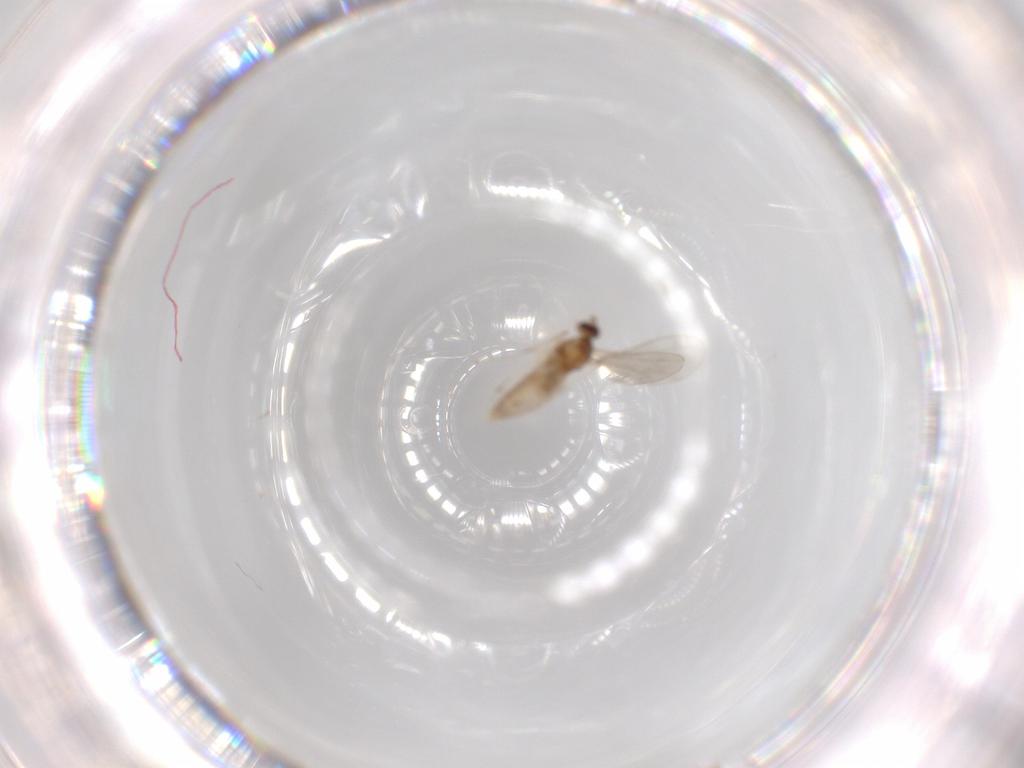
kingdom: Animalia
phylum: Arthropoda
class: Insecta
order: Diptera
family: Cecidomyiidae
